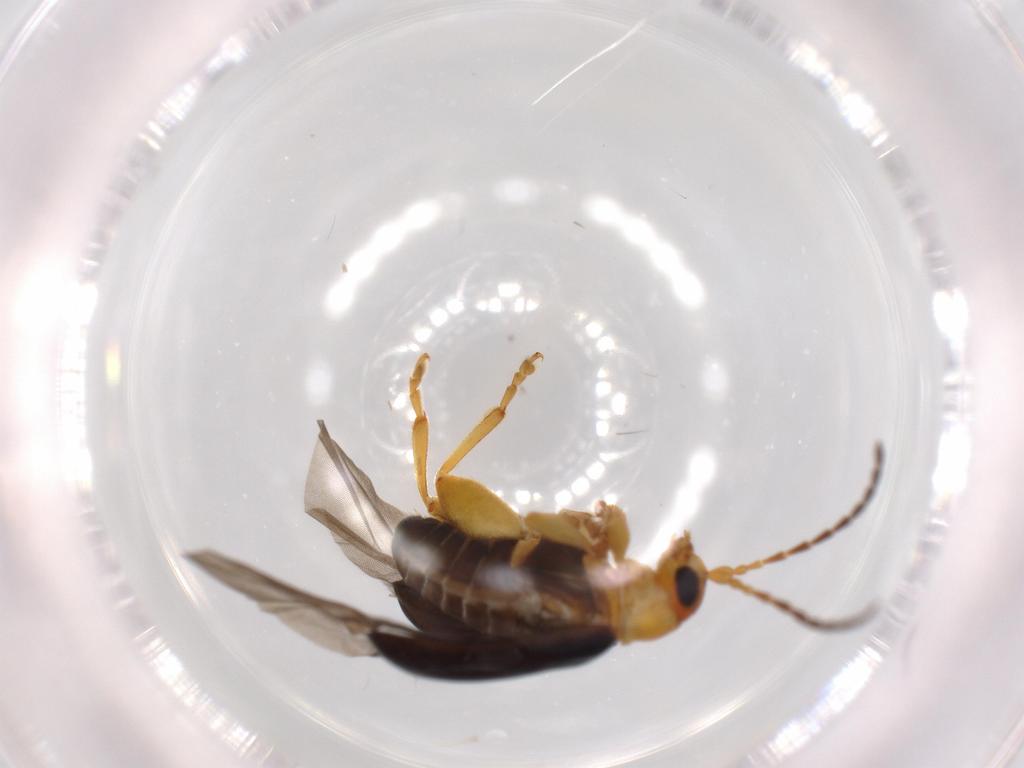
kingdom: Animalia
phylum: Arthropoda
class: Insecta
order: Coleoptera
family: Chrysomelidae
